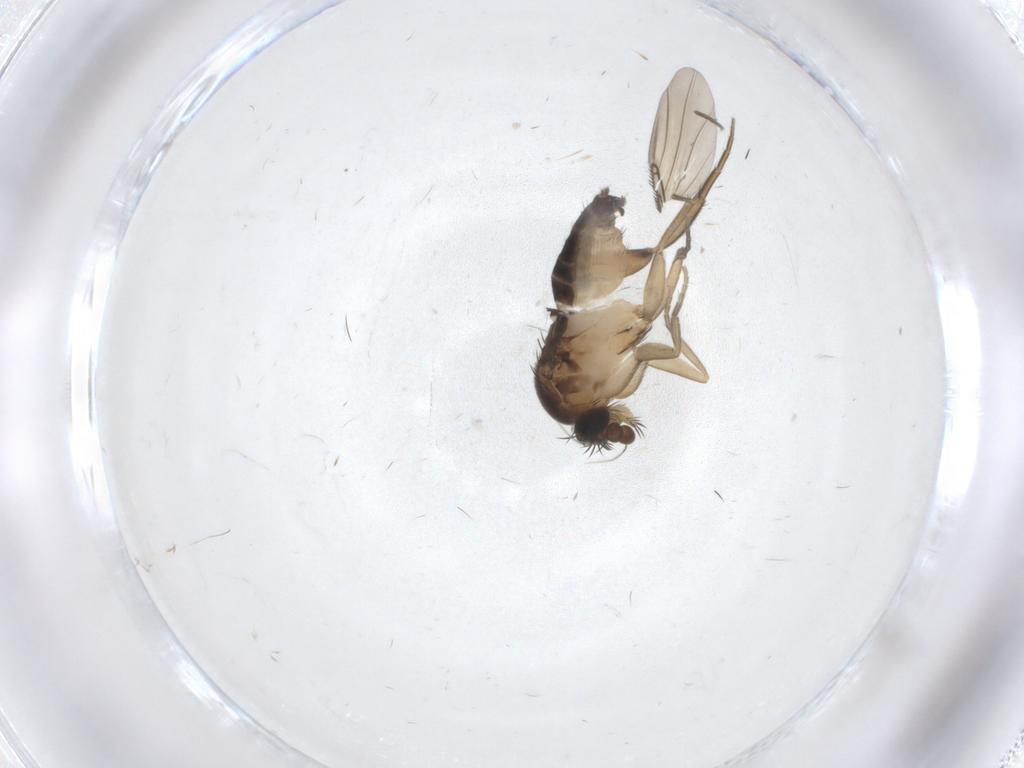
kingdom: Animalia
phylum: Arthropoda
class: Insecta
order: Diptera
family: Phoridae
